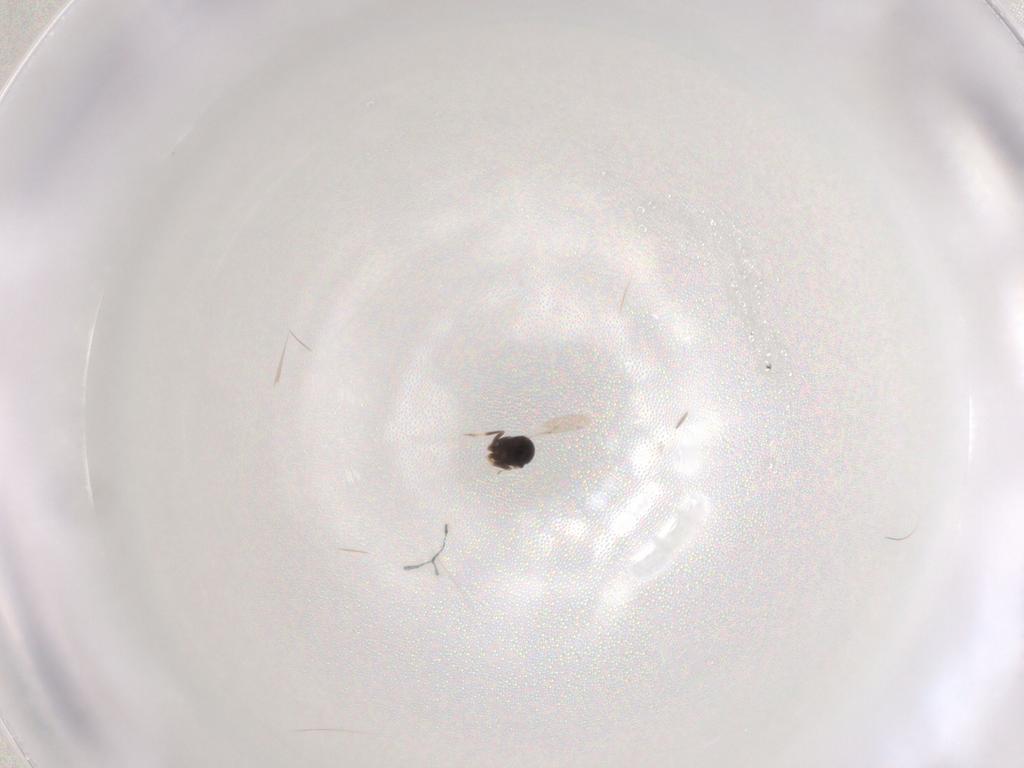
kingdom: Animalia
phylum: Arthropoda
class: Insecta
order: Hymenoptera
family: Scelionidae
